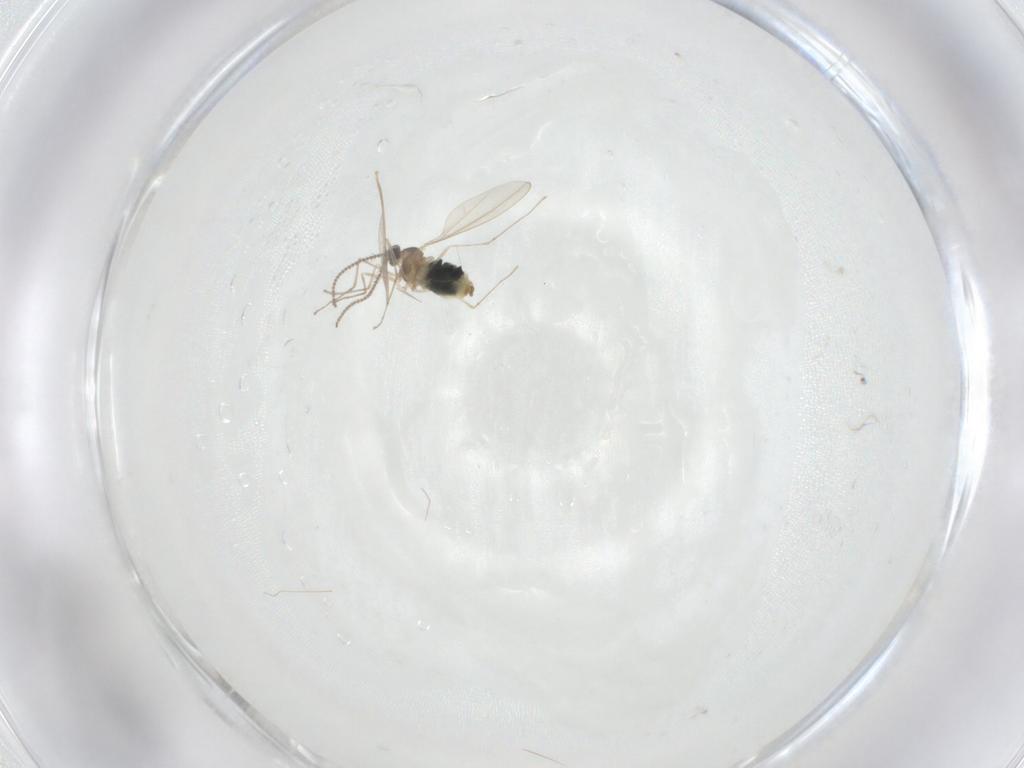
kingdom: Animalia
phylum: Arthropoda
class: Insecta
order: Diptera
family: Cecidomyiidae
